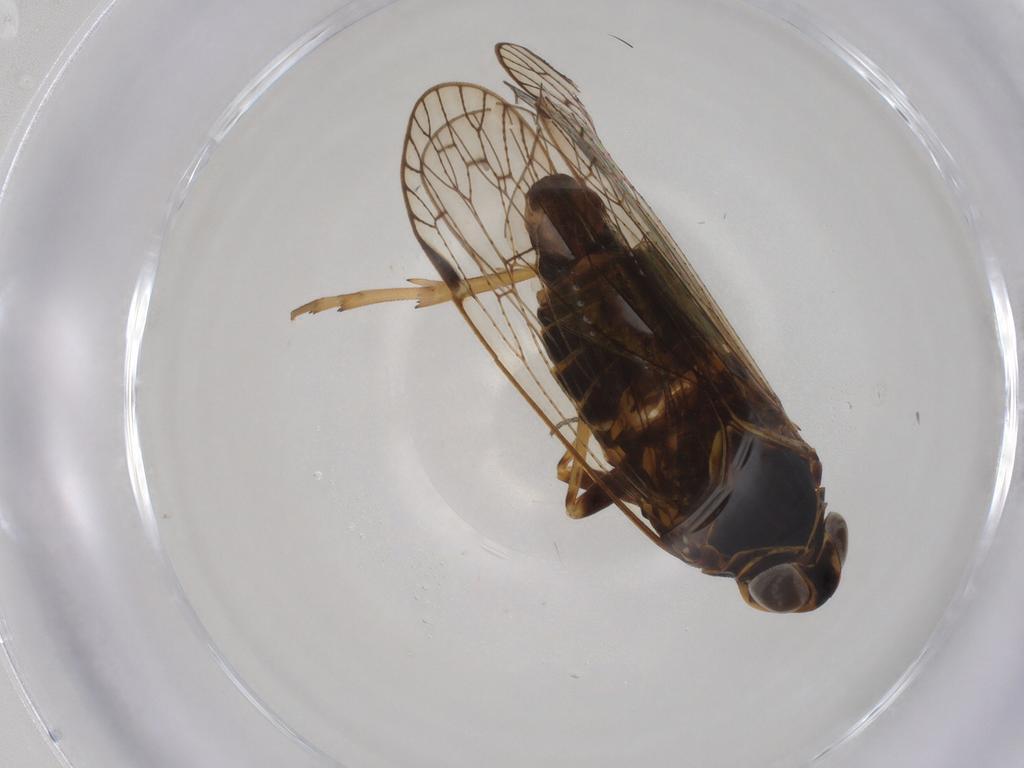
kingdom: Animalia
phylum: Arthropoda
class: Insecta
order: Hemiptera
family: Cixiidae
